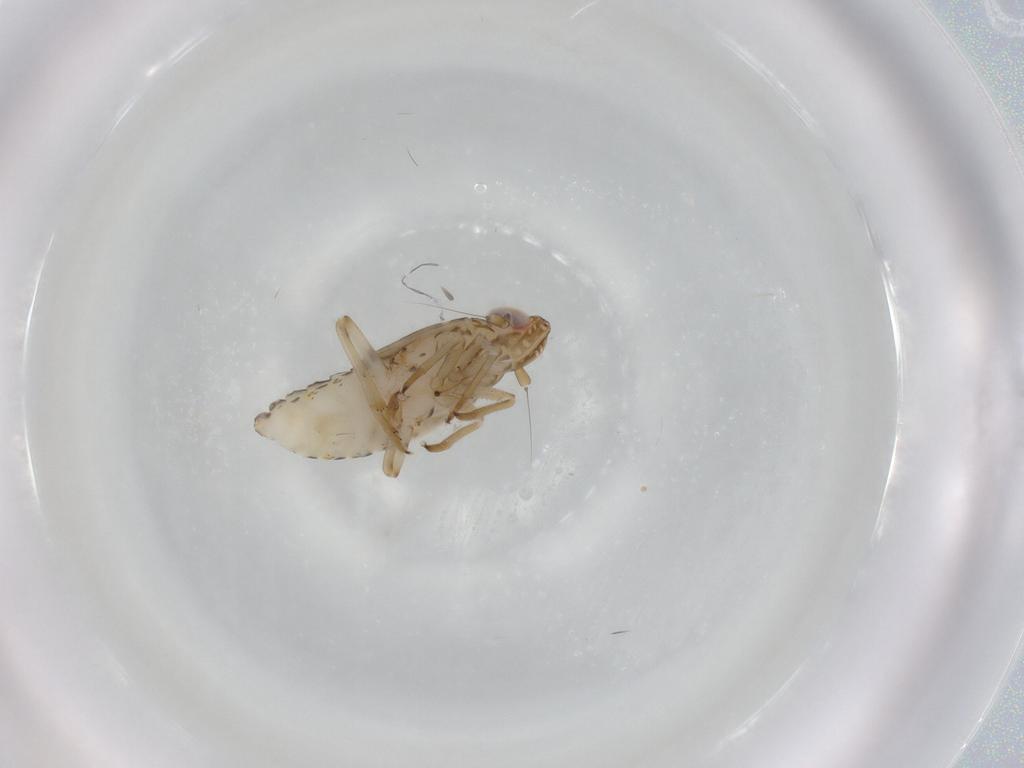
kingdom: Animalia
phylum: Arthropoda
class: Insecta
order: Hemiptera
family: Delphacidae
